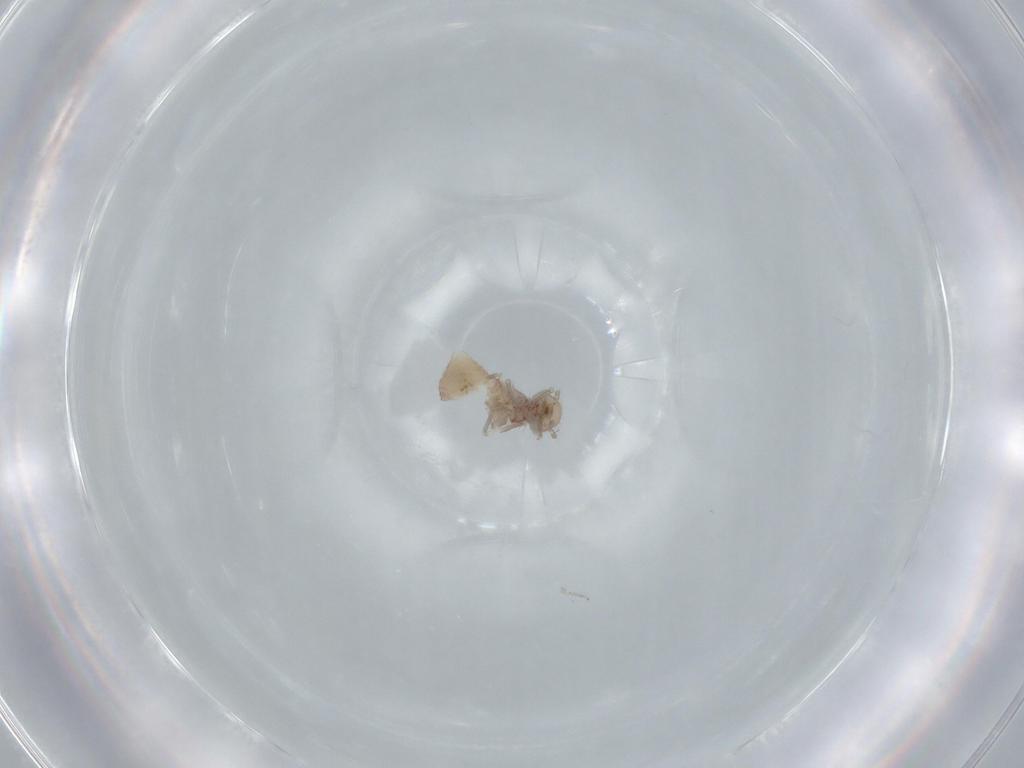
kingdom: Animalia
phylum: Arthropoda
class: Insecta
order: Psocodea
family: Ectopsocidae
